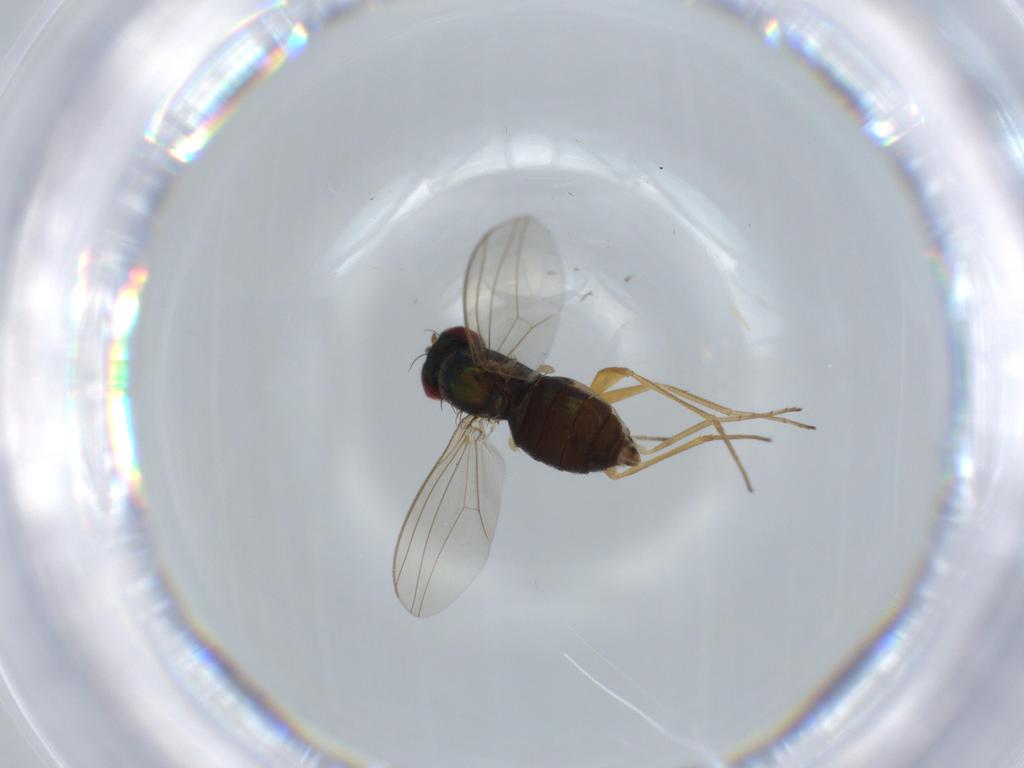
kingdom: Animalia
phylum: Arthropoda
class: Insecta
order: Diptera
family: Dolichopodidae
